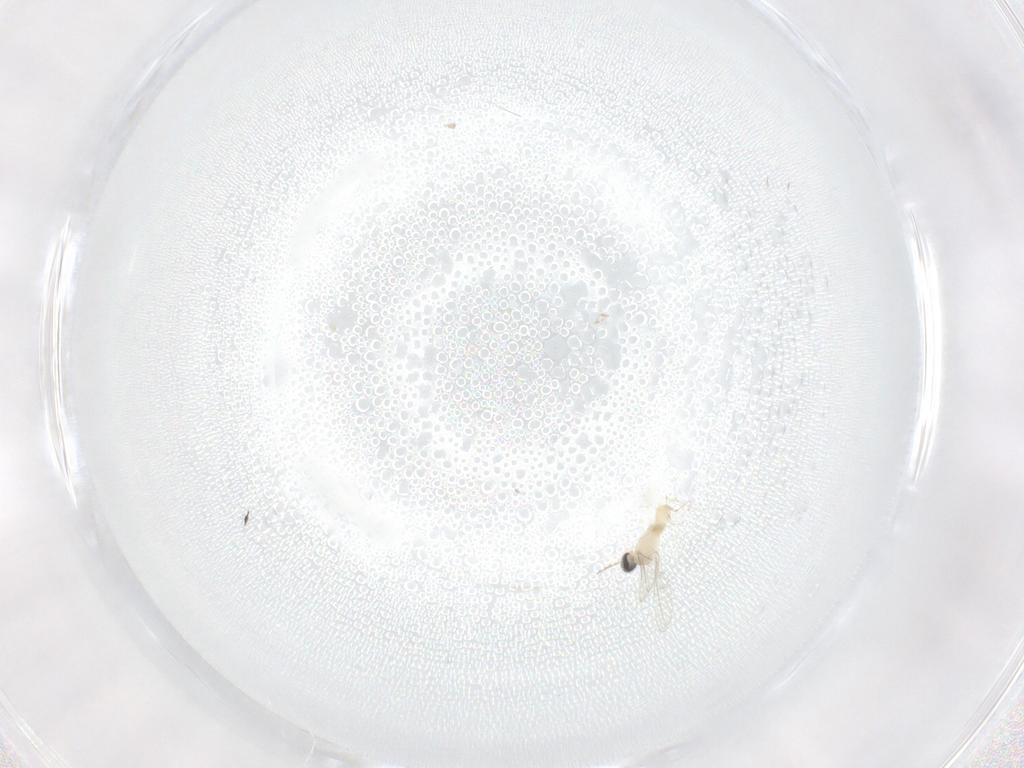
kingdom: Animalia
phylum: Arthropoda
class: Insecta
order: Diptera
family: Cecidomyiidae
